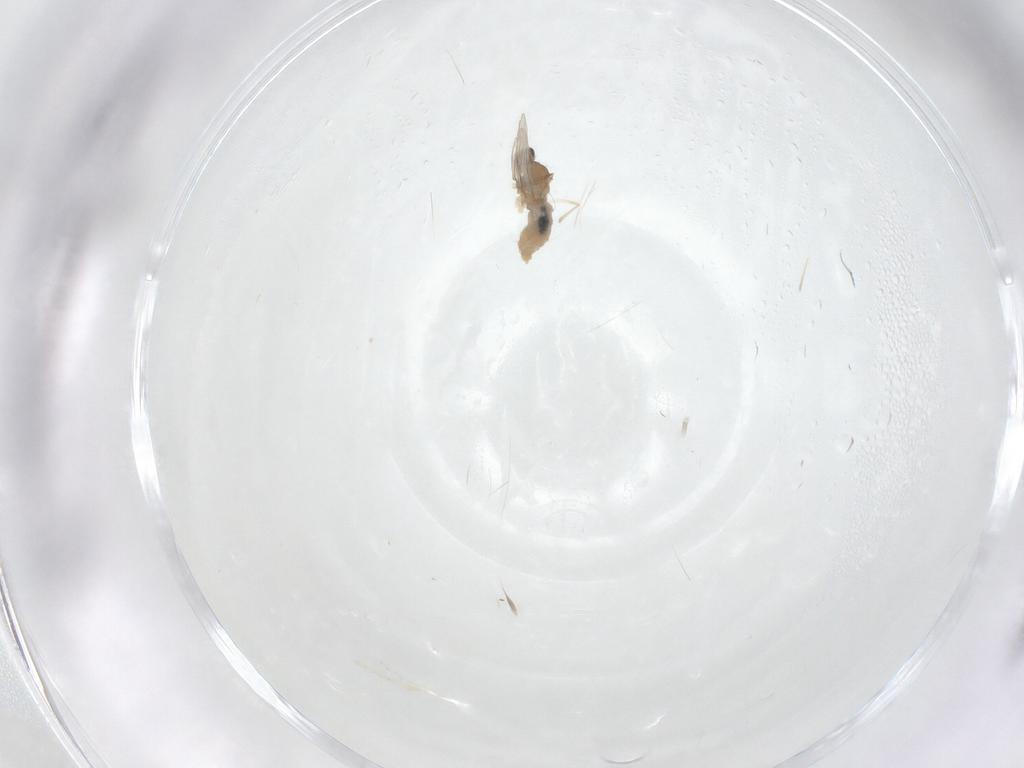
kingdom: Animalia
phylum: Arthropoda
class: Insecta
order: Diptera
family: Cecidomyiidae
